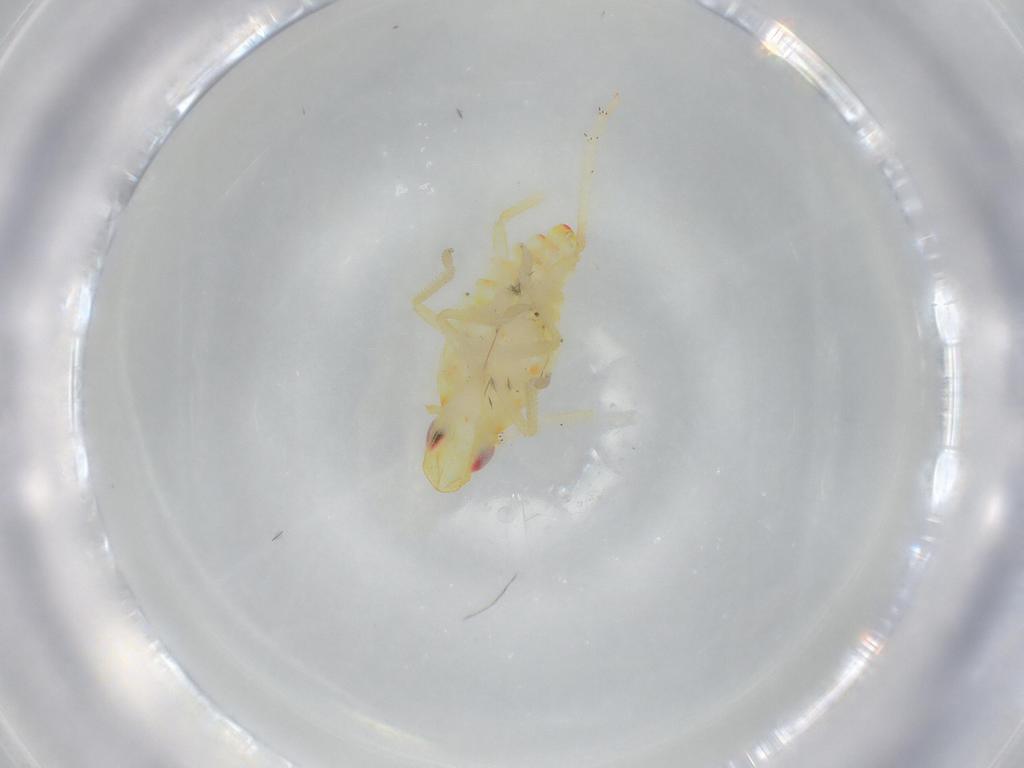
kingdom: Animalia
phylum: Arthropoda
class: Insecta
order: Hemiptera
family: Tropiduchidae
